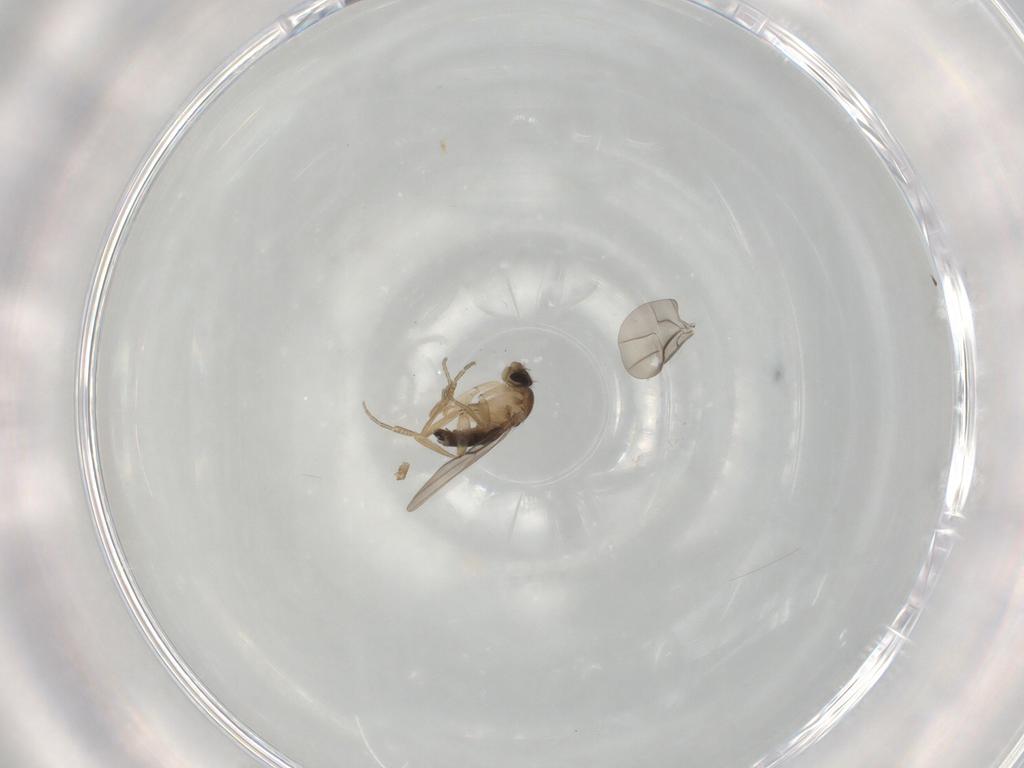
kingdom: Animalia
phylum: Arthropoda
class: Insecta
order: Diptera
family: Phoridae
